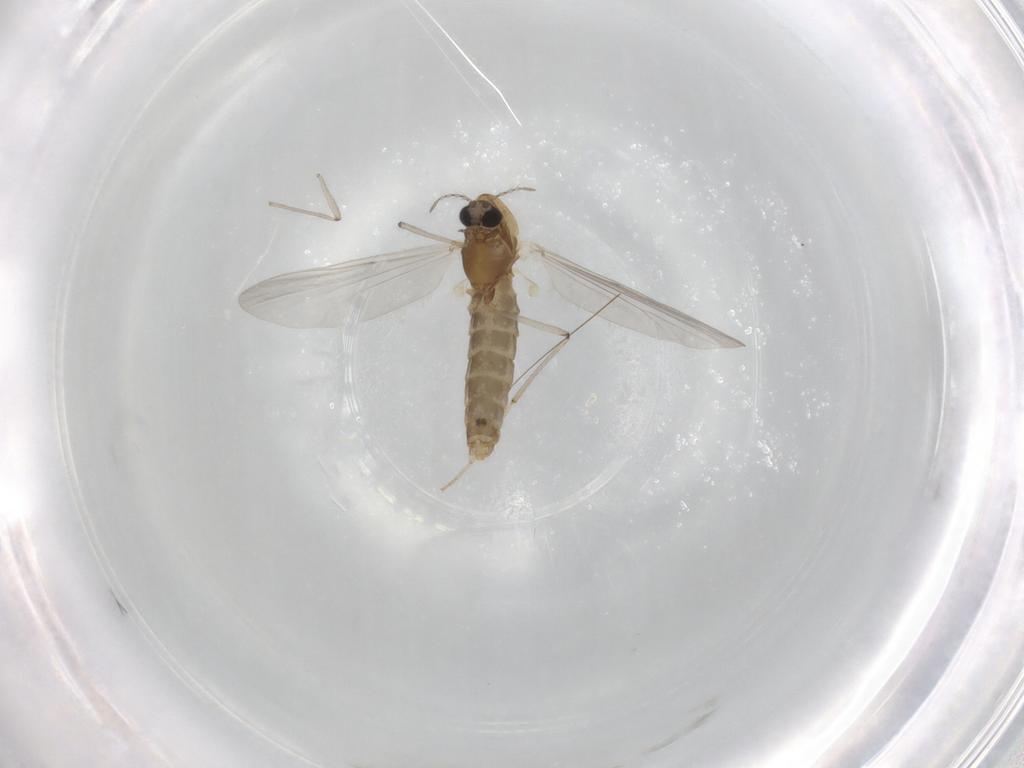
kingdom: Animalia
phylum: Arthropoda
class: Insecta
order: Diptera
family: Chironomidae
